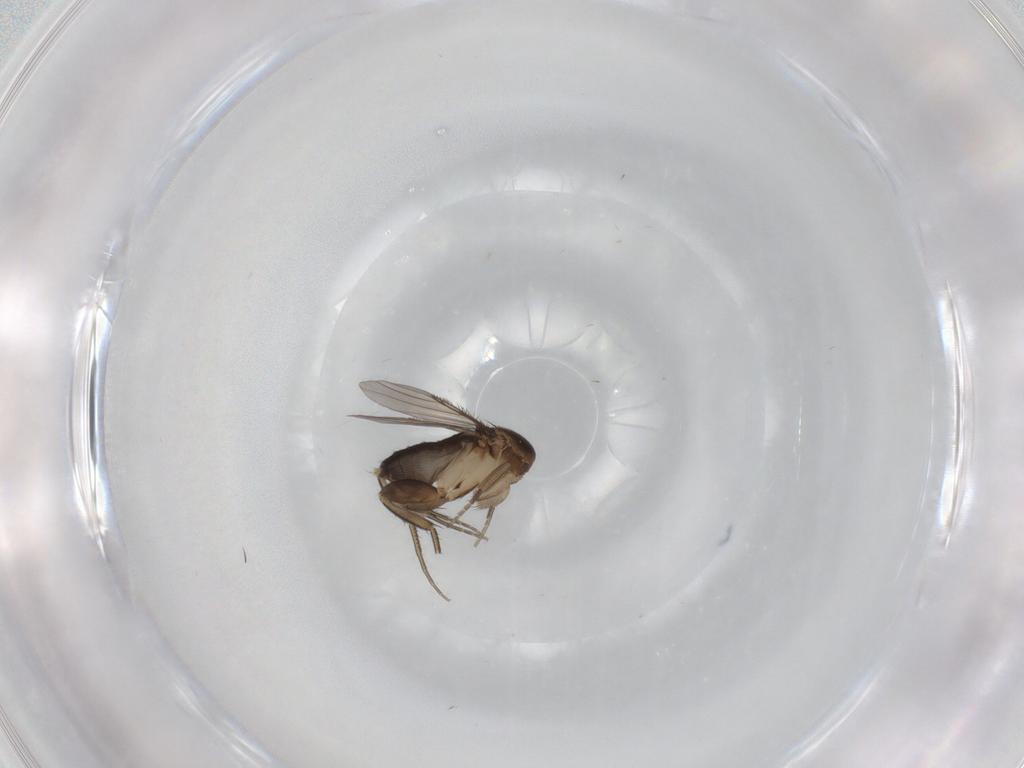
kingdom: Animalia
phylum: Arthropoda
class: Insecta
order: Diptera
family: Phoridae
